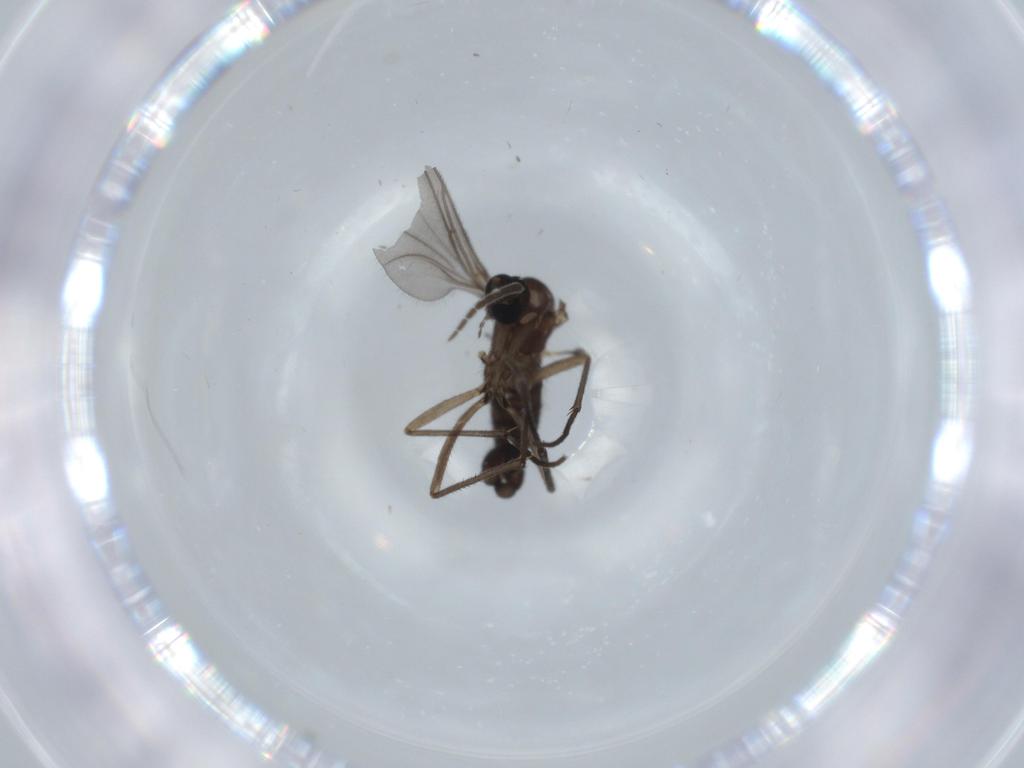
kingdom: Animalia
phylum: Arthropoda
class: Insecta
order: Diptera
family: Sciaridae
